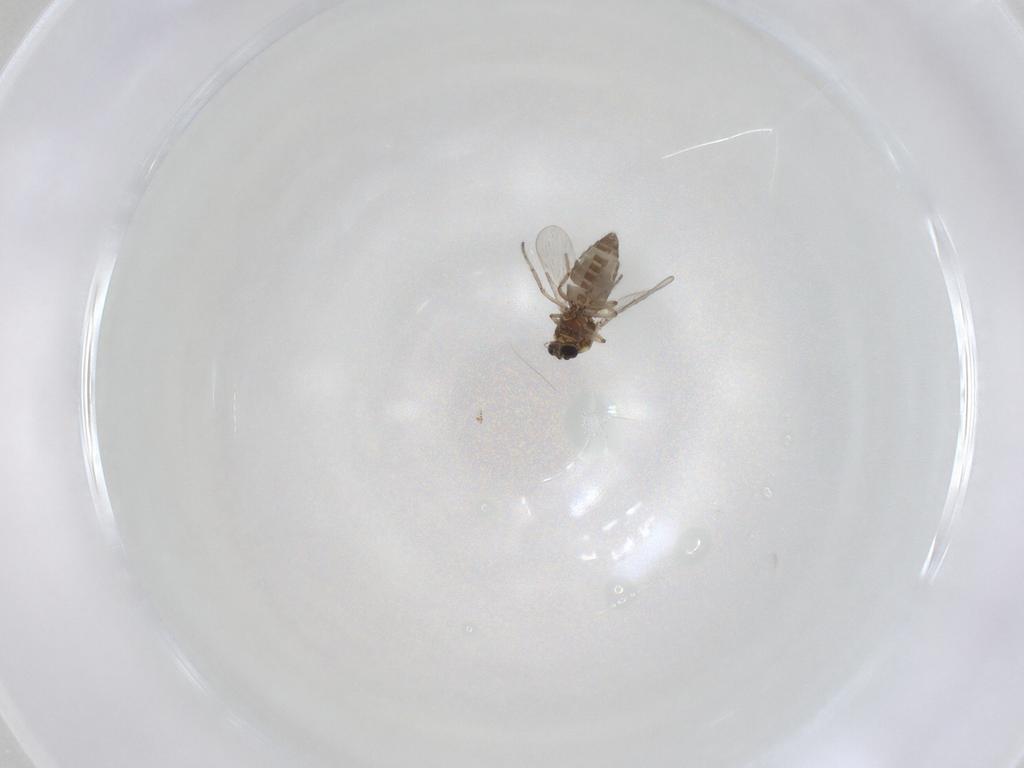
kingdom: Animalia
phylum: Arthropoda
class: Insecta
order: Diptera
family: Ceratopogonidae
